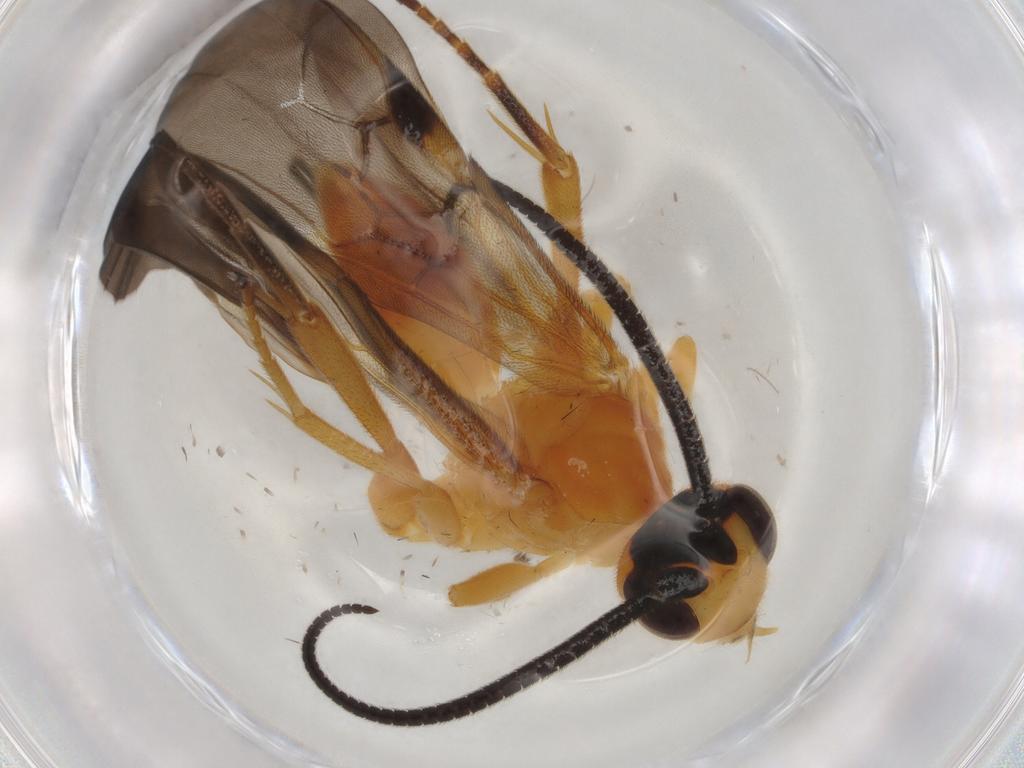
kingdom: Animalia
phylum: Arthropoda
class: Insecta
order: Hymenoptera
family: Braconidae
